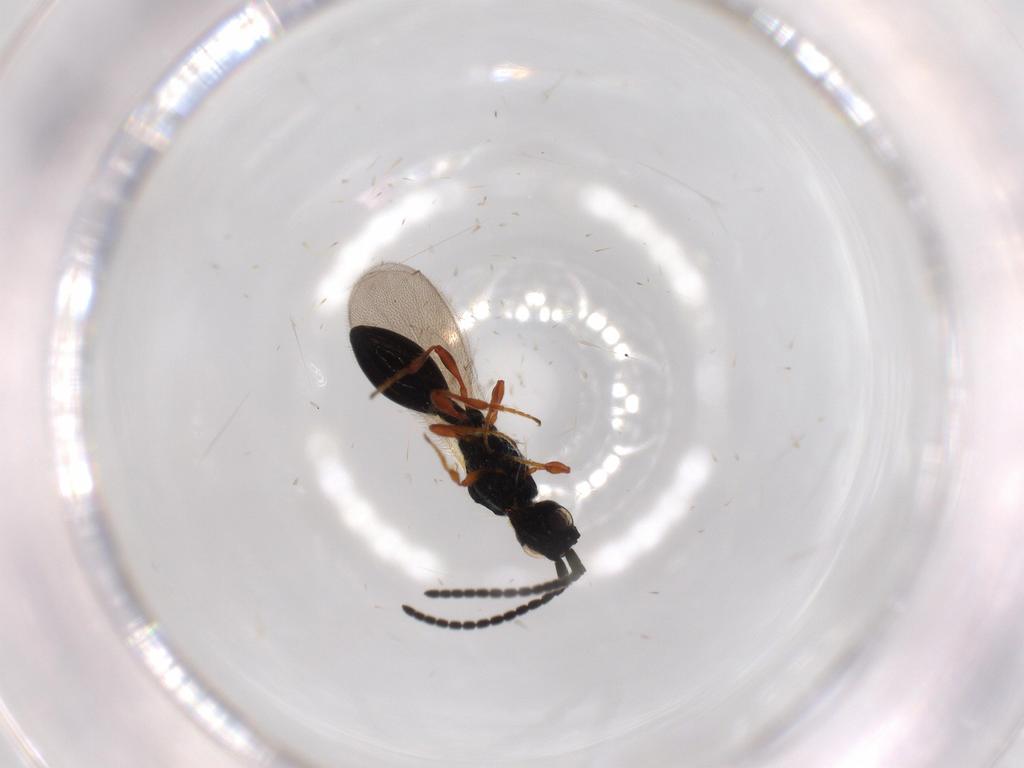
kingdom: Animalia
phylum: Arthropoda
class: Insecta
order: Hymenoptera
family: Diapriidae
